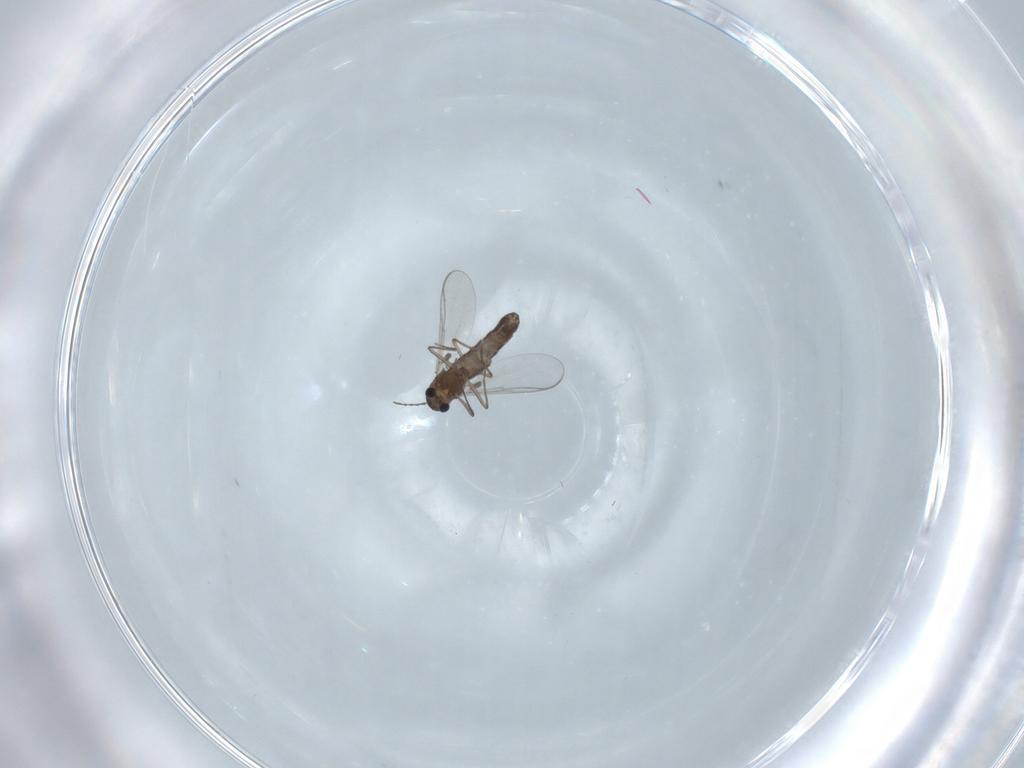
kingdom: Animalia
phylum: Arthropoda
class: Insecta
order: Diptera
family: Chironomidae
